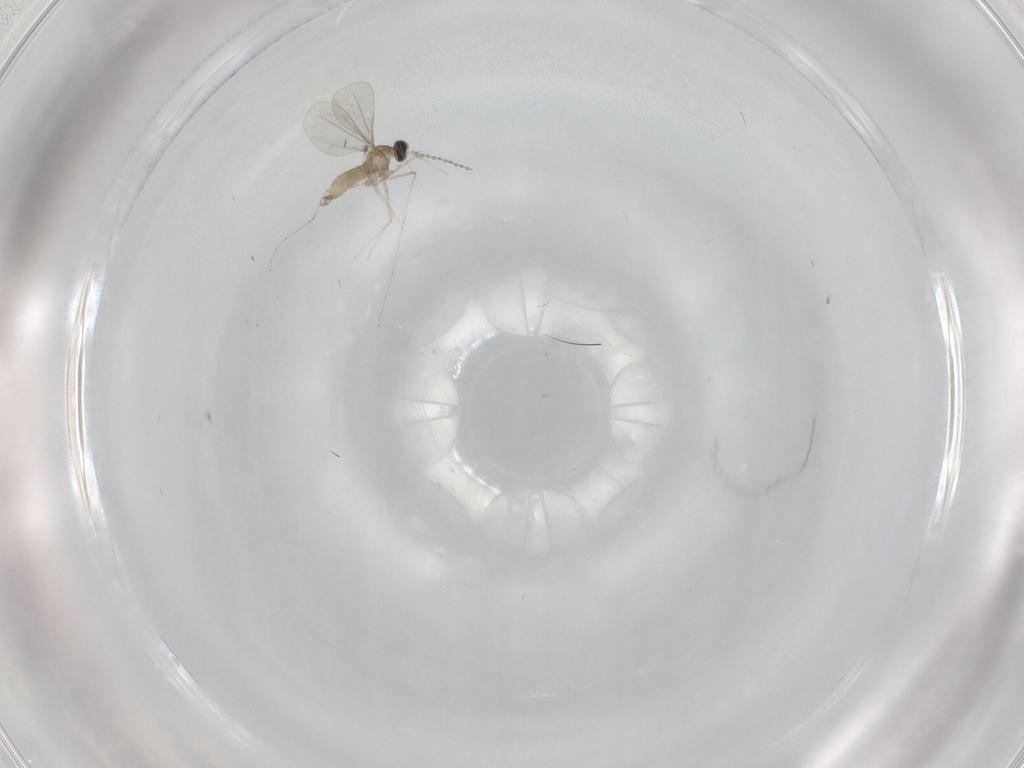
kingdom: Animalia
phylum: Arthropoda
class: Insecta
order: Diptera
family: Cecidomyiidae
